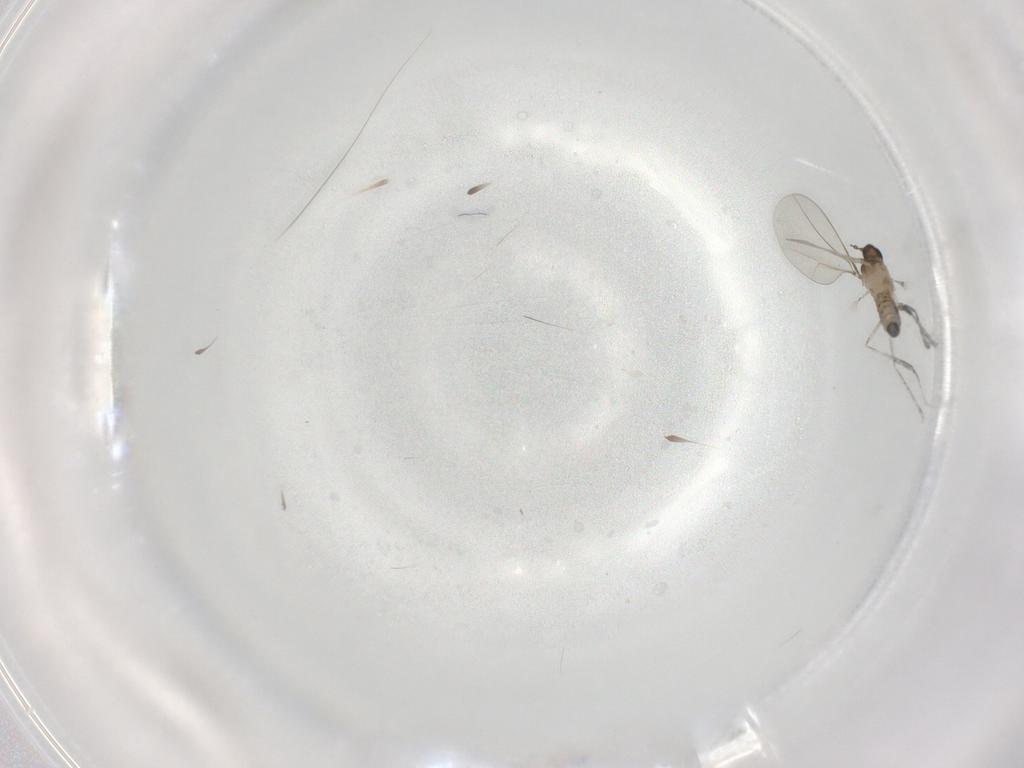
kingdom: Animalia
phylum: Arthropoda
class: Insecta
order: Diptera
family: Cecidomyiidae
